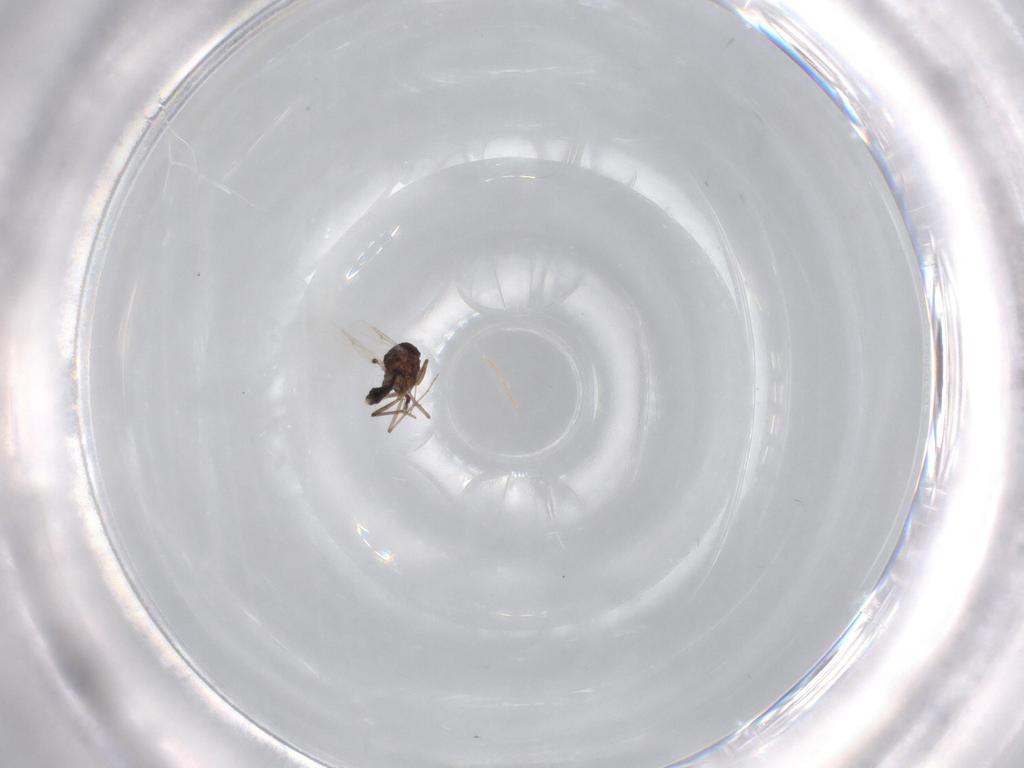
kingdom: Animalia
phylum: Arthropoda
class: Insecta
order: Diptera
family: Ceratopogonidae
